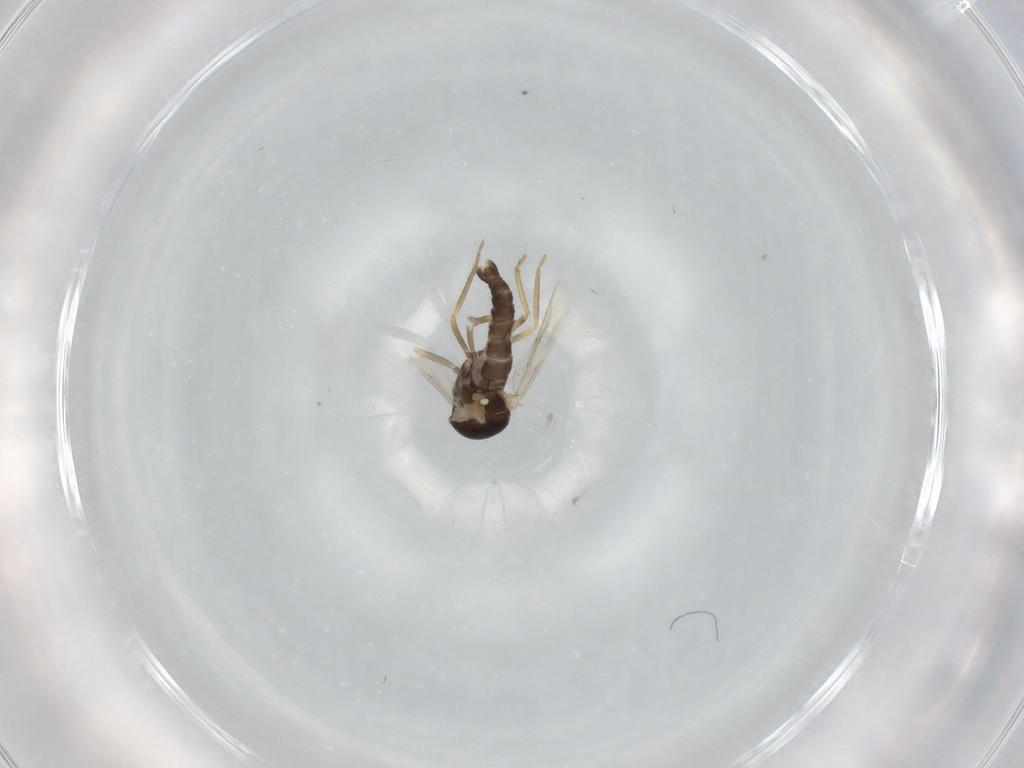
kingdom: Animalia
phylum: Arthropoda
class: Insecta
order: Diptera
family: Ceratopogonidae
